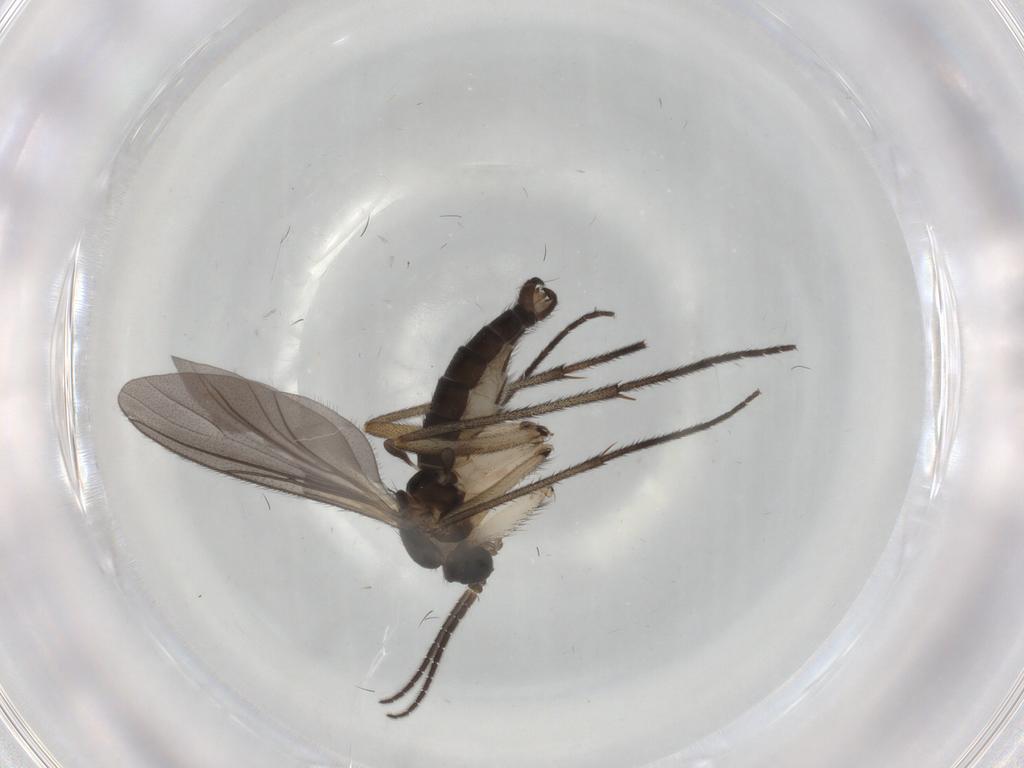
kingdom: Animalia
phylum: Arthropoda
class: Insecta
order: Diptera
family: Sciaridae
